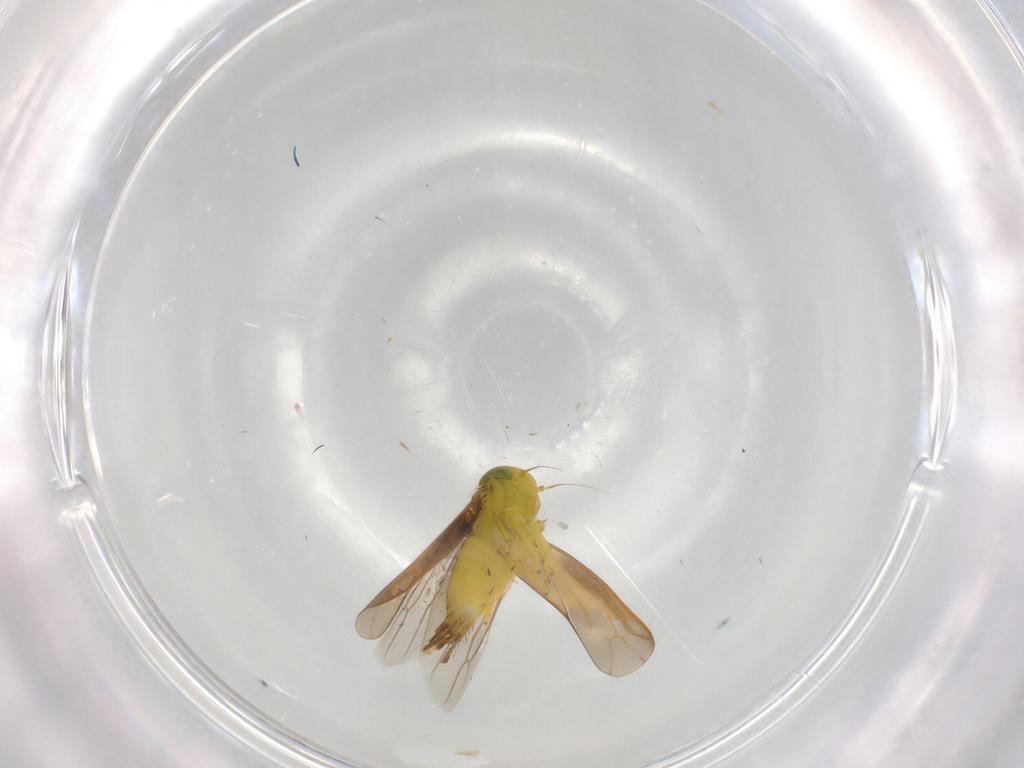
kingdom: Animalia
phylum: Arthropoda
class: Insecta
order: Hemiptera
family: Cicadellidae
